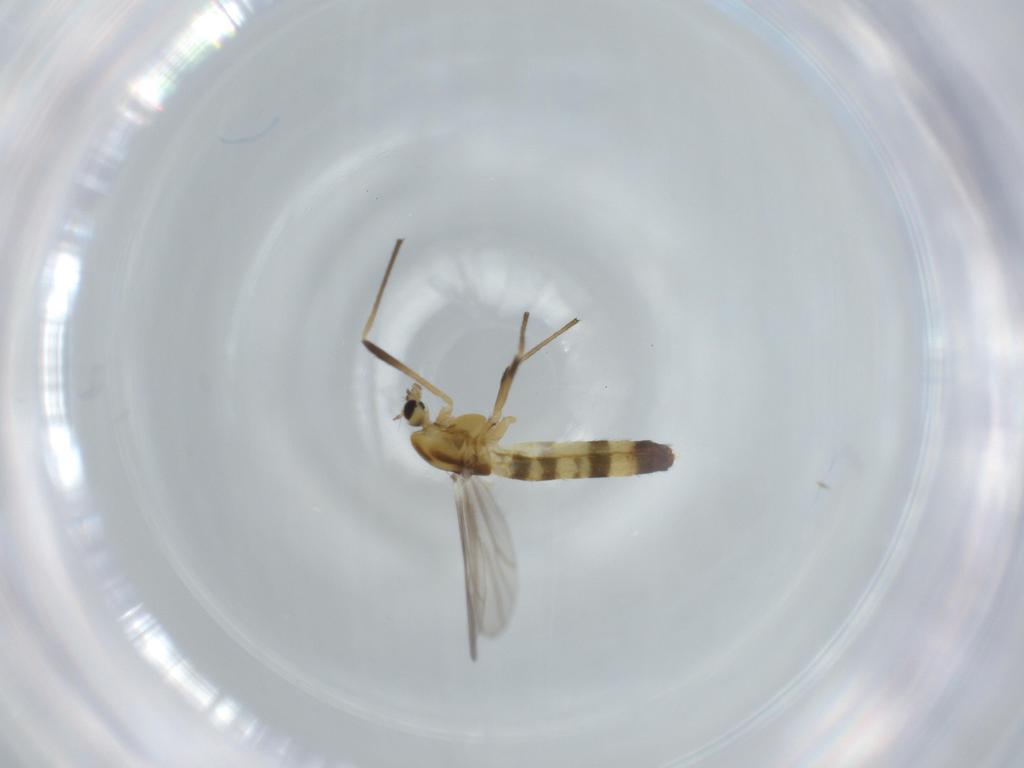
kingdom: Animalia
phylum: Arthropoda
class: Insecta
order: Diptera
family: Chironomidae
